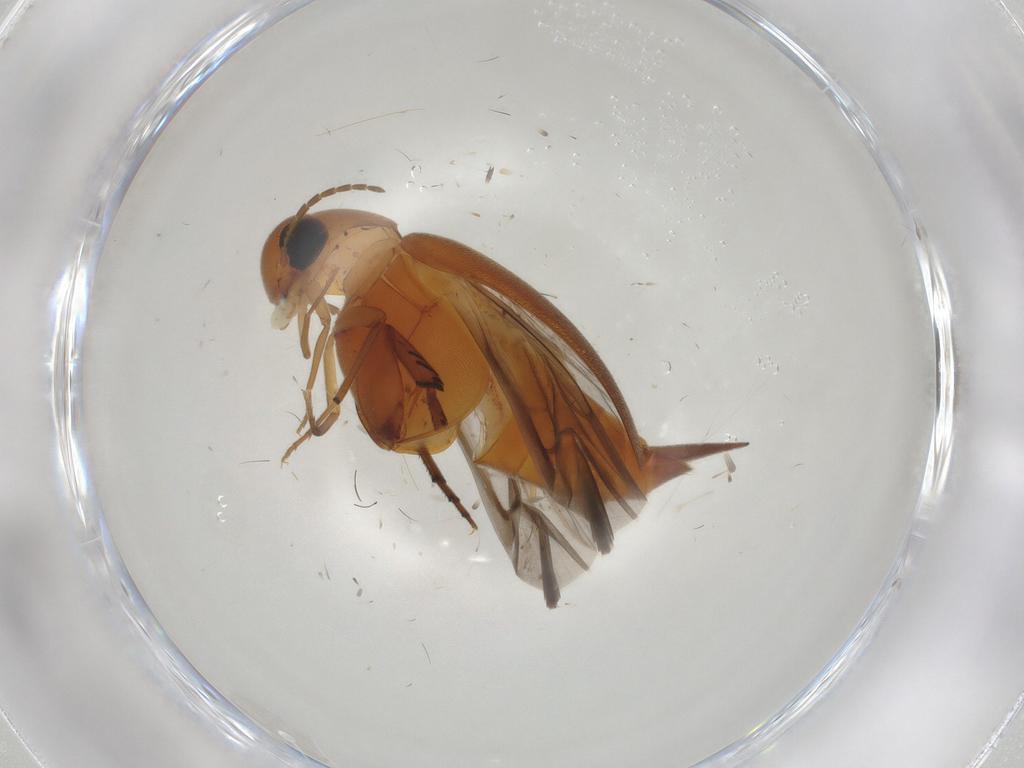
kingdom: Animalia
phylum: Arthropoda
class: Insecta
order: Coleoptera
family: Mordellidae
